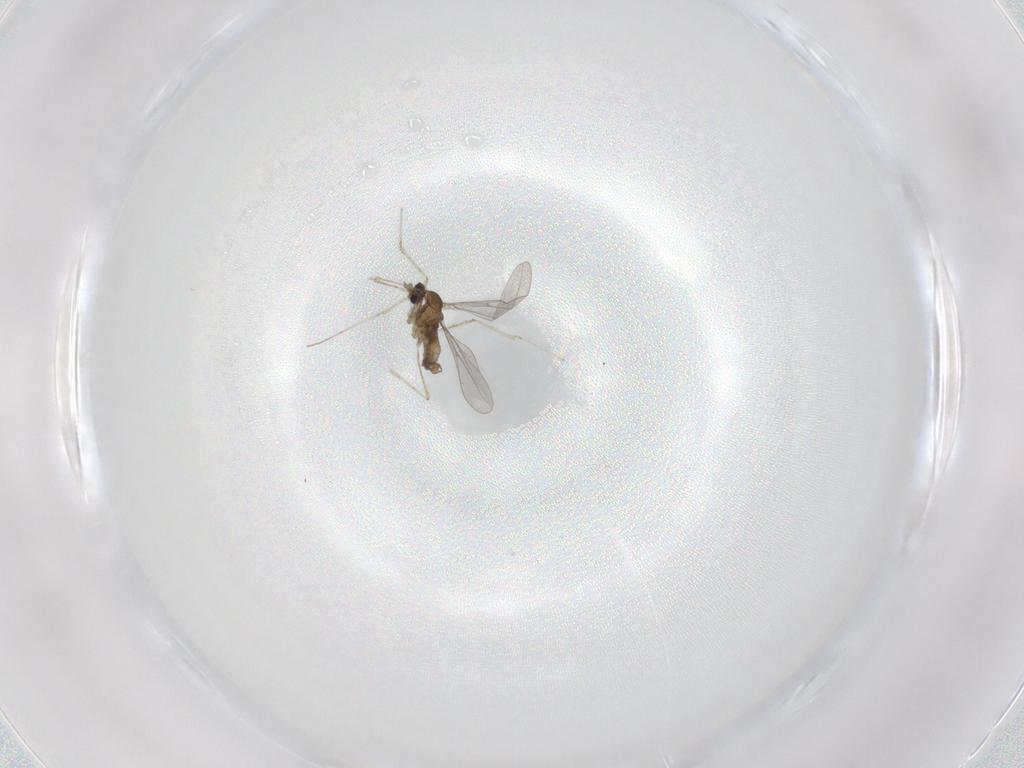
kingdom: Animalia
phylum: Arthropoda
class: Insecta
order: Diptera
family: Cecidomyiidae
